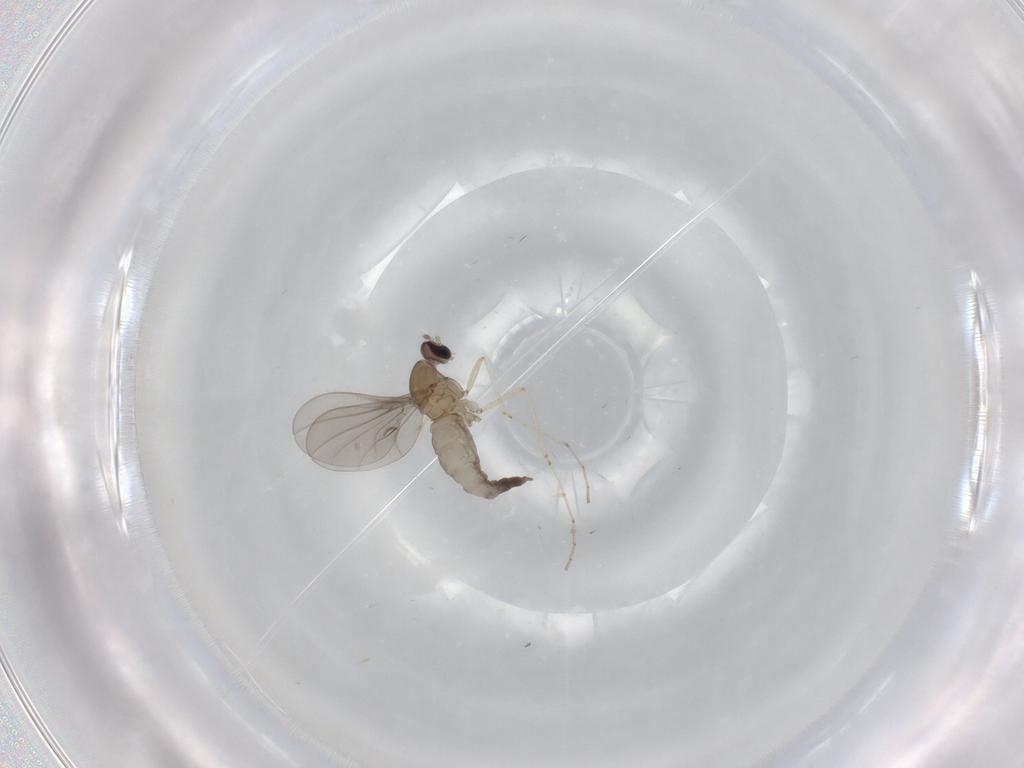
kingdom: Animalia
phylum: Arthropoda
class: Insecta
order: Diptera
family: Cecidomyiidae
